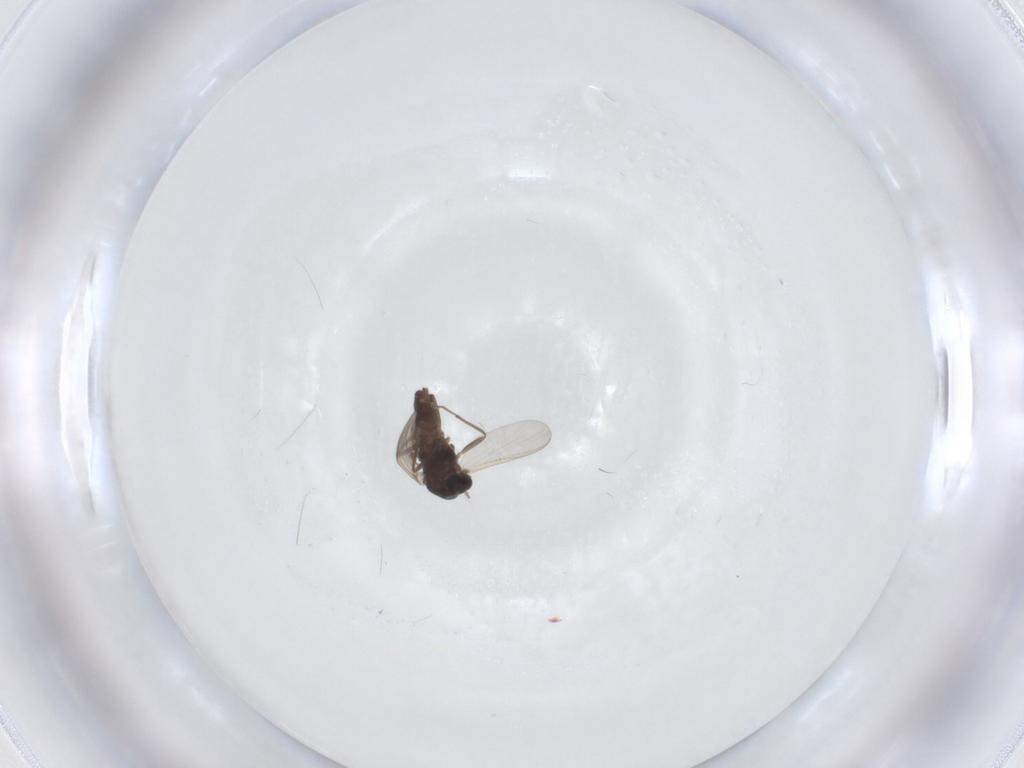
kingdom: Animalia
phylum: Arthropoda
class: Insecta
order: Diptera
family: Chironomidae
